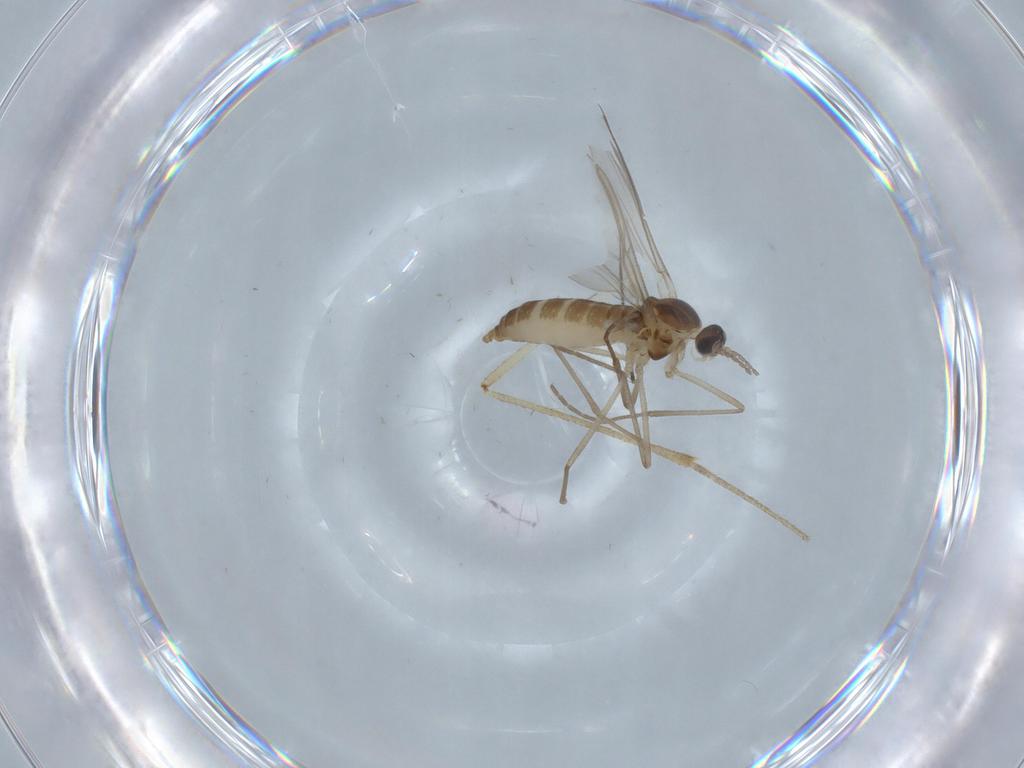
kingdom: Animalia
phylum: Arthropoda
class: Insecta
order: Diptera
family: Cecidomyiidae
